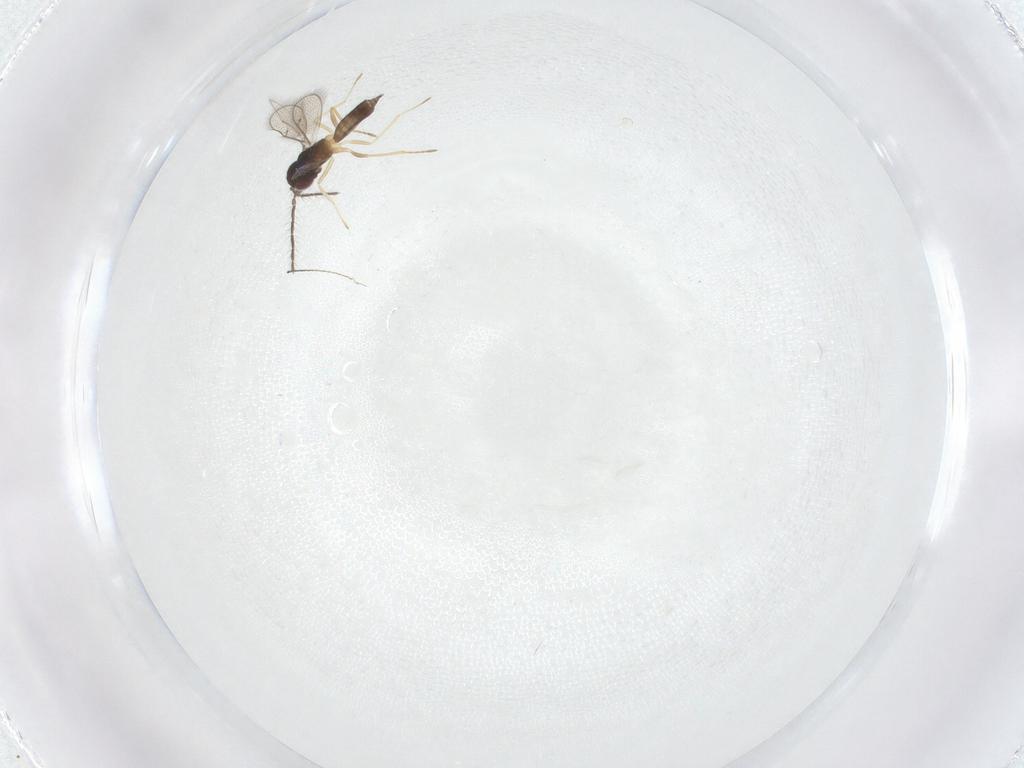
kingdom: Animalia
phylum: Arthropoda
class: Insecta
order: Hymenoptera
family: Eulophidae
